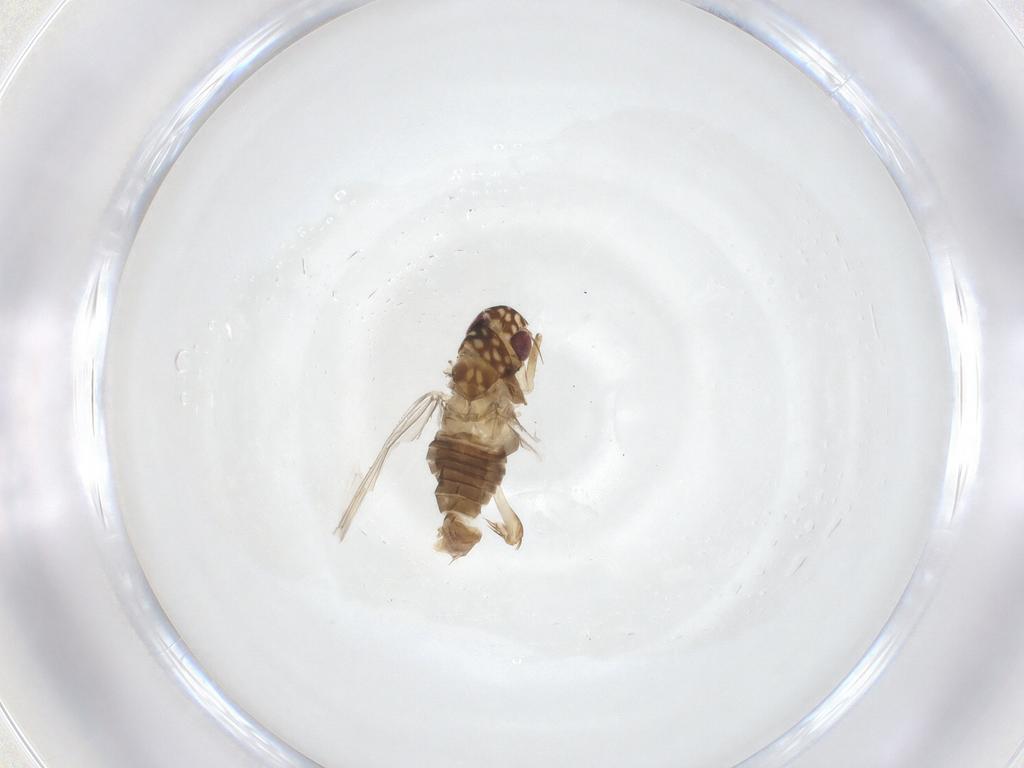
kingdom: Animalia
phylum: Arthropoda
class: Insecta
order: Hemiptera
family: Cicadellidae
